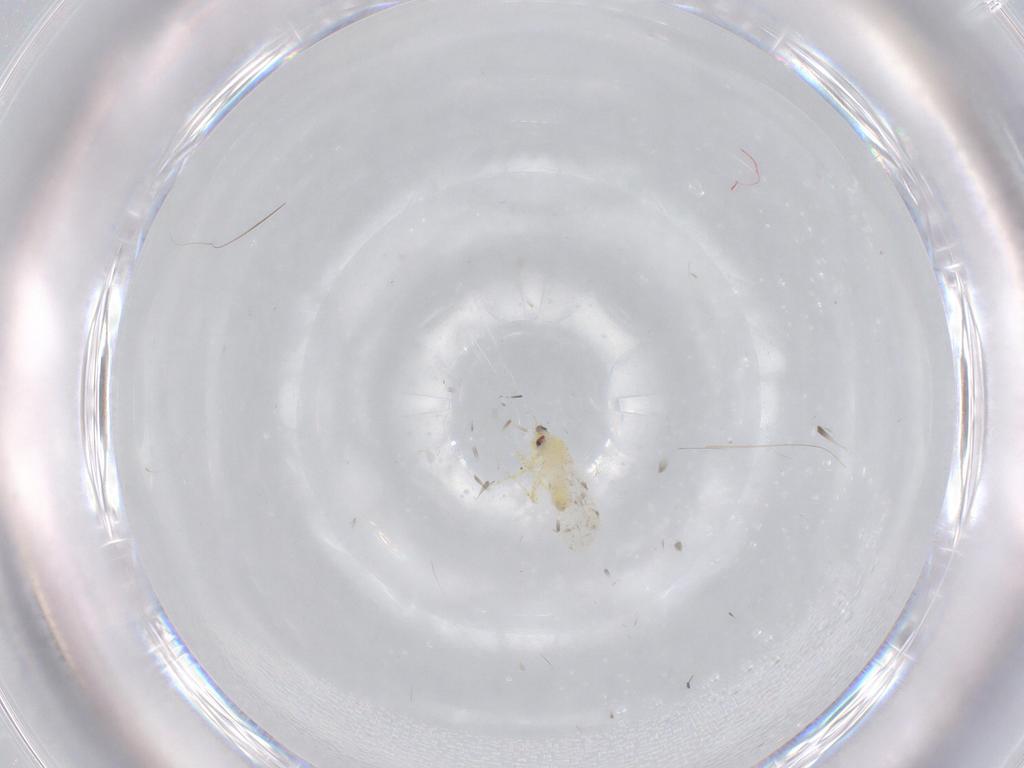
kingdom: Animalia
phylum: Arthropoda
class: Insecta
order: Hemiptera
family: Aleyrodidae
